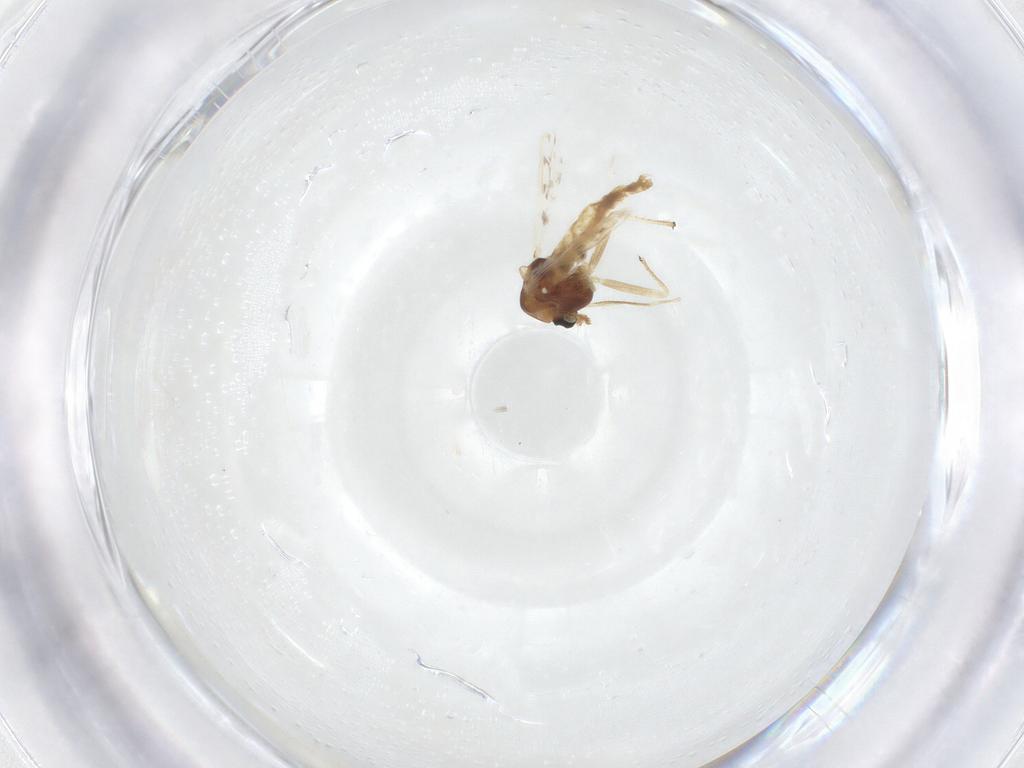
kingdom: Animalia
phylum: Arthropoda
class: Insecta
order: Diptera
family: Chironomidae
